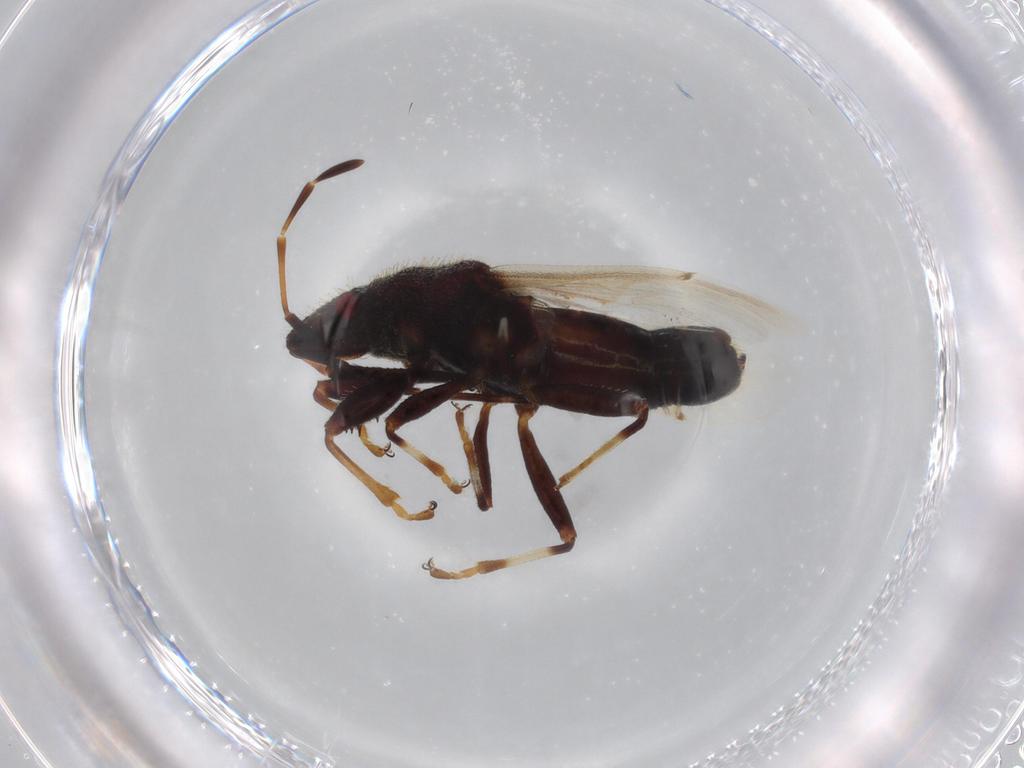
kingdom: Animalia
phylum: Arthropoda
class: Insecta
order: Hemiptera
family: Oxycarenidae
